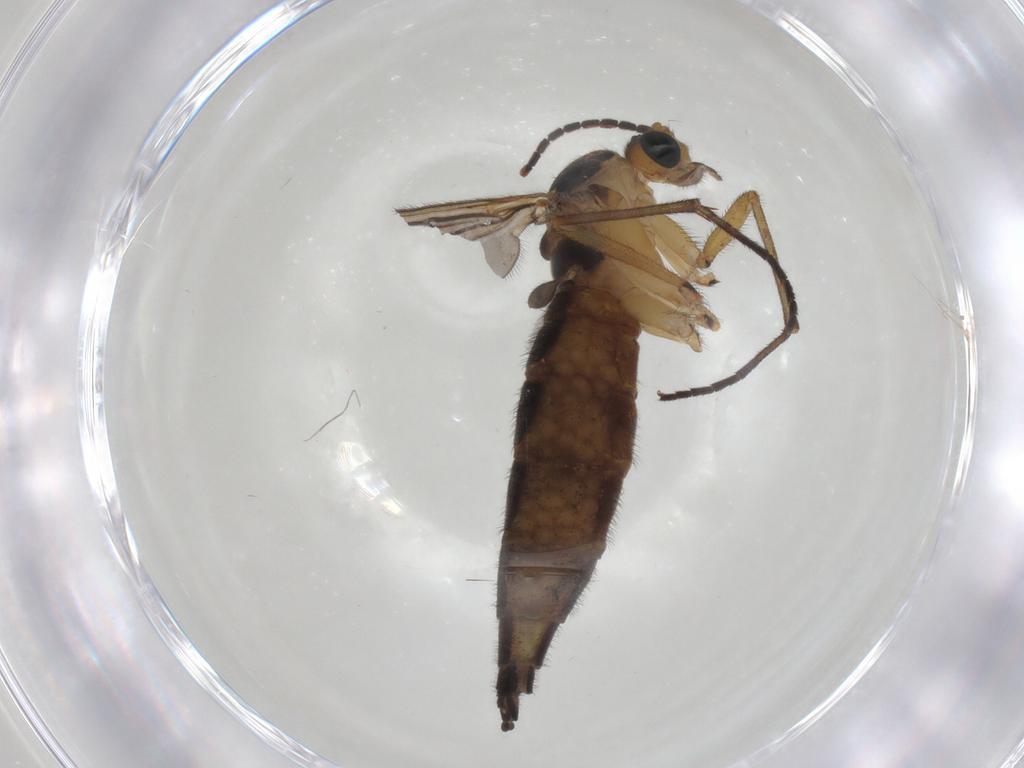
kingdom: Animalia
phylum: Arthropoda
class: Insecta
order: Diptera
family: Sciaridae
